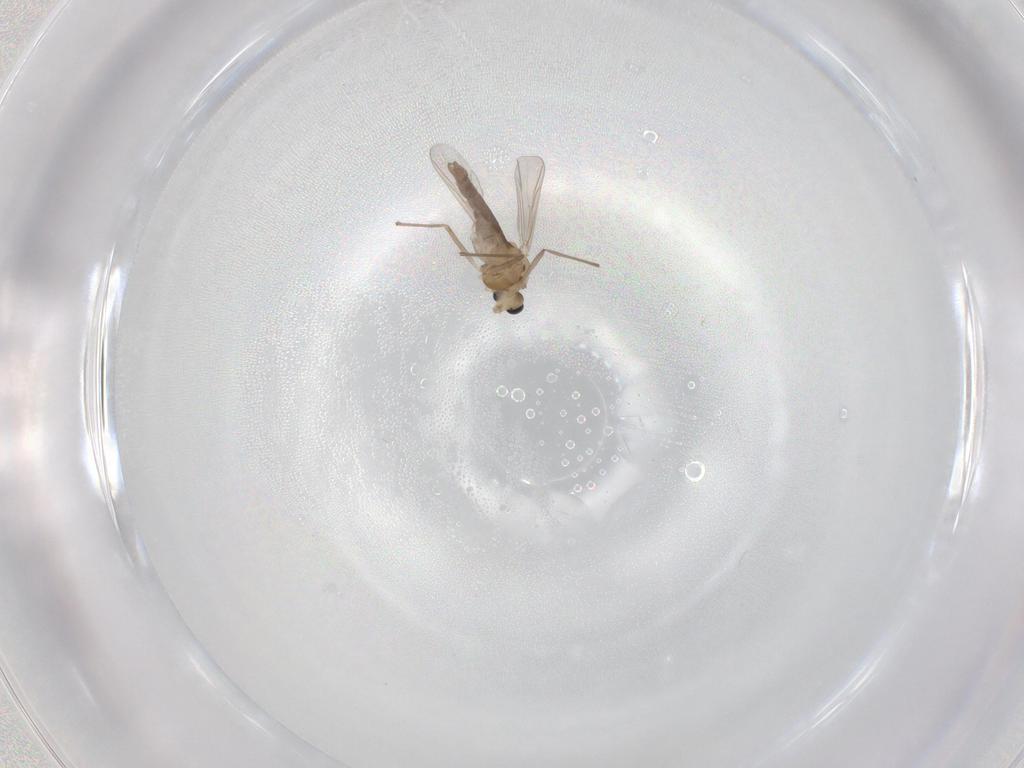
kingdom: Animalia
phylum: Arthropoda
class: Insecta
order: Diptera
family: Chironomidae
